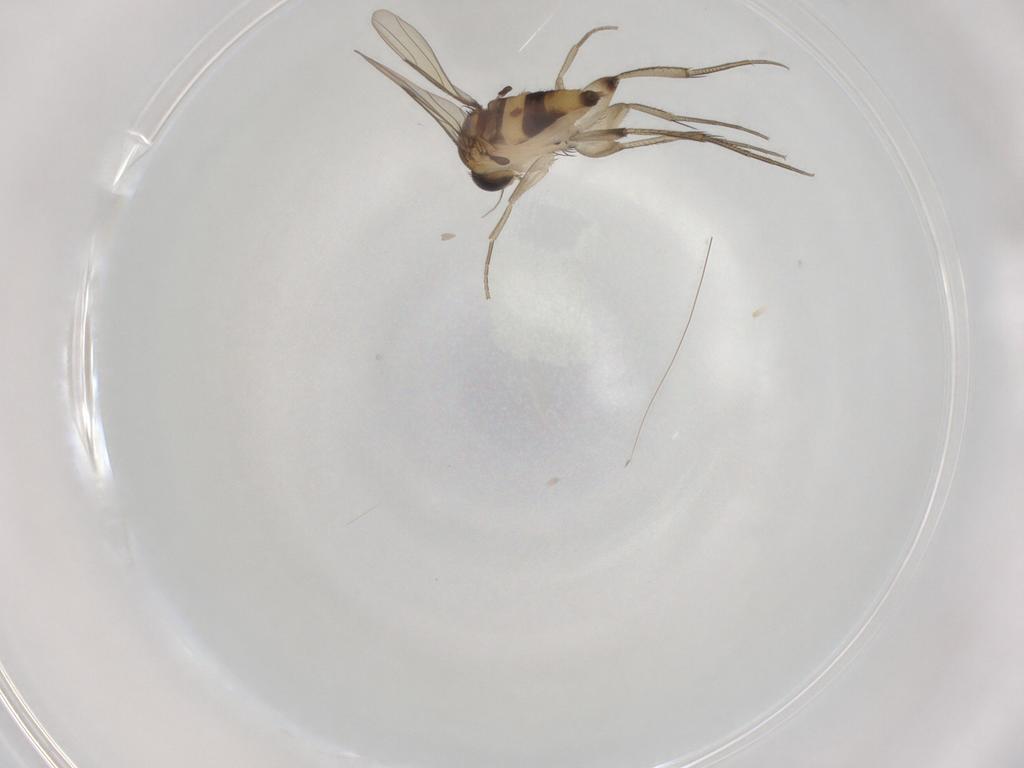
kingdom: Animalia
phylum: Arthropoda
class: Insecta
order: Diptera
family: Phoridae
